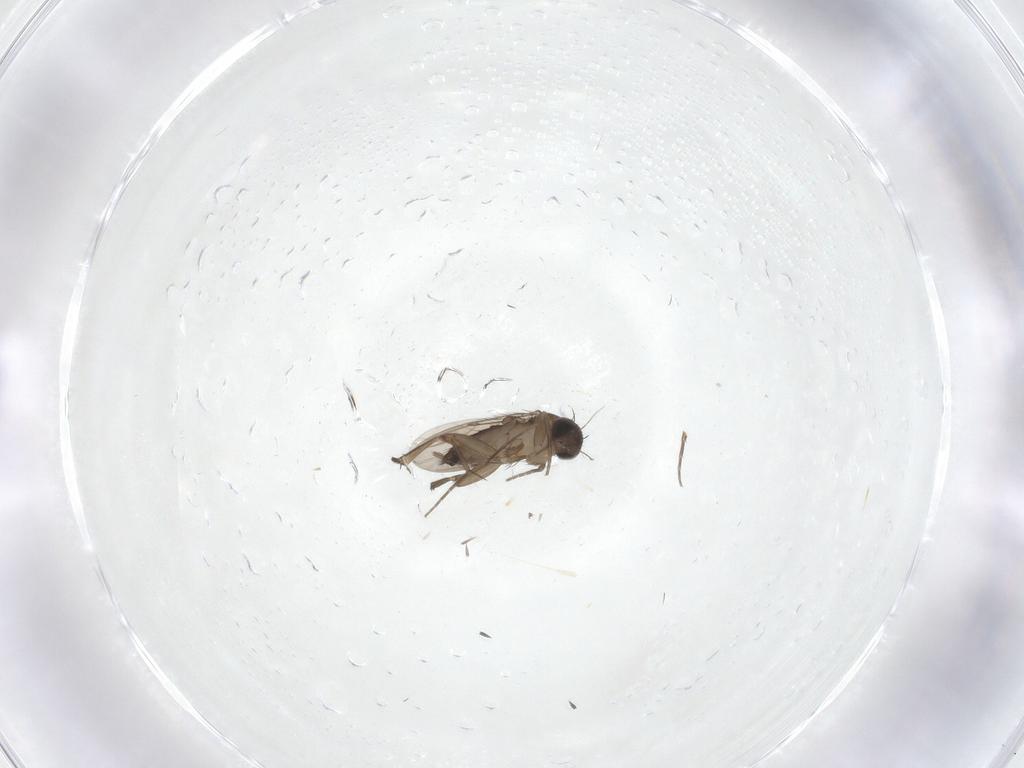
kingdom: Animalia
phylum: Arthropoda
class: Insecta
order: Diptera
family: Phoridae
